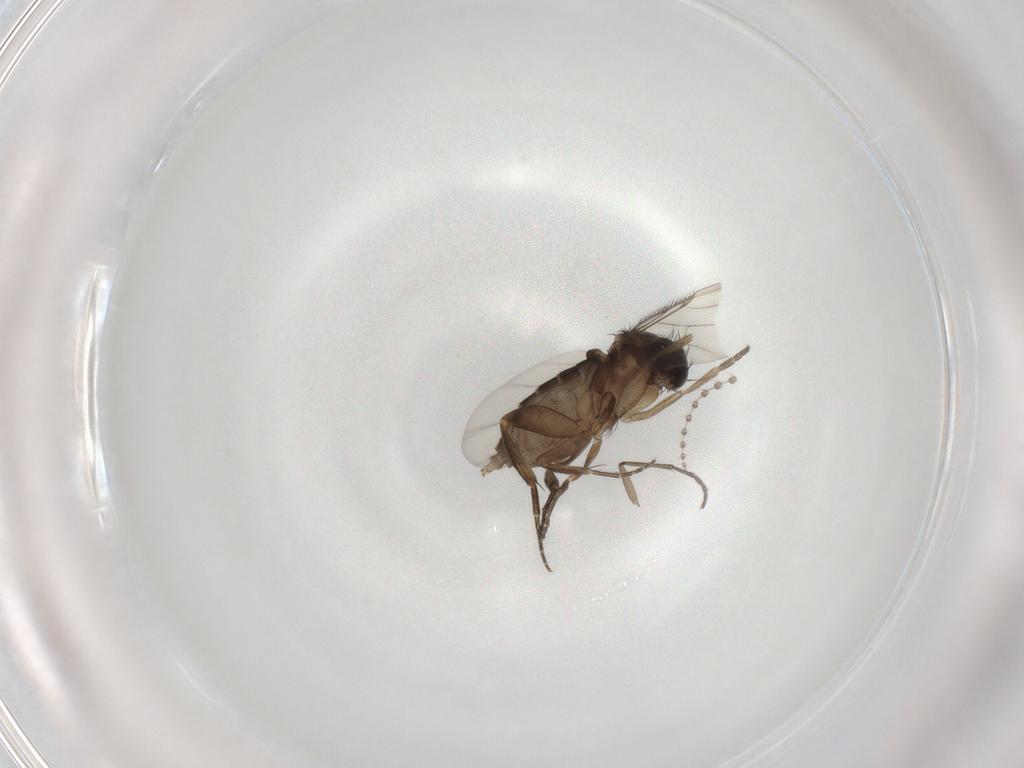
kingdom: Animalia
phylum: Arthropoda
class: Insecta
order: Diptera
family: Phoridae
